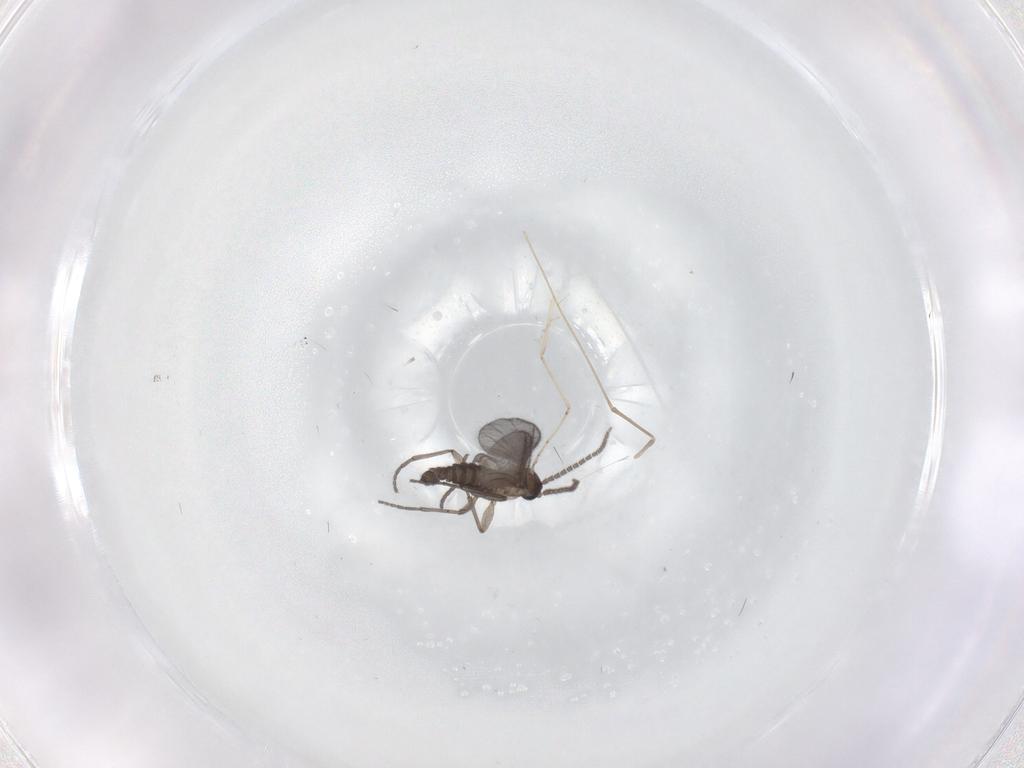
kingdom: Animalia
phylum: Arthropoda
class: Insecta
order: Diptera
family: Sciaridae
